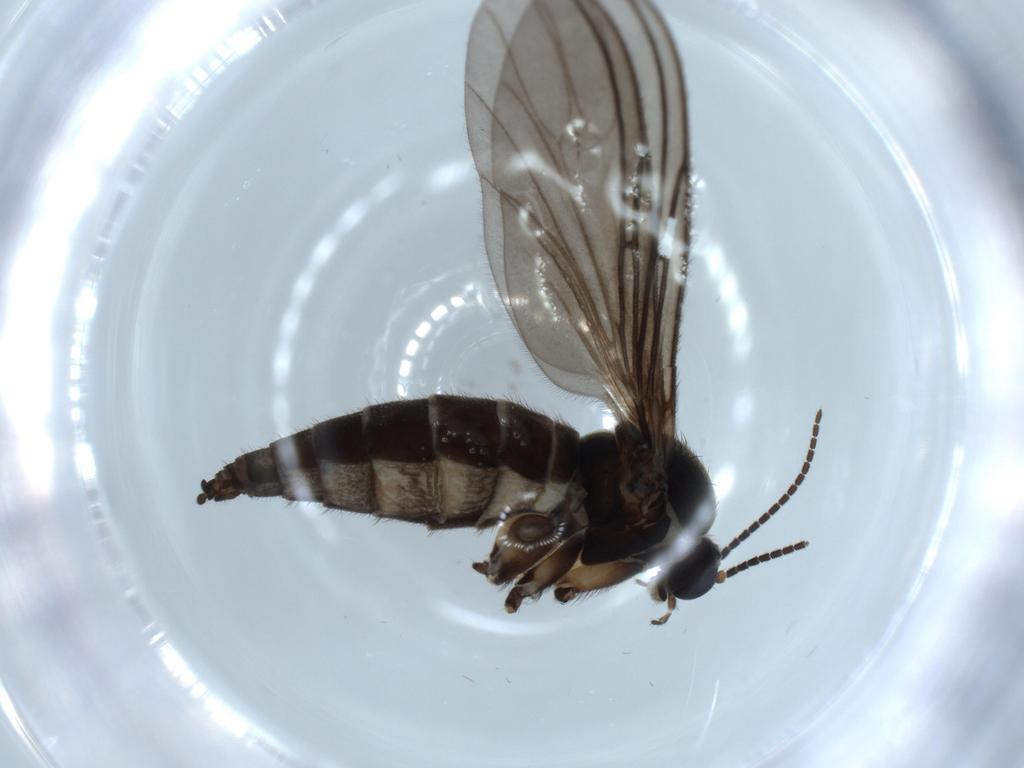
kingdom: Animalia
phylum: Arthropoda
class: Insecta
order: Diptera
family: Sciaridae
